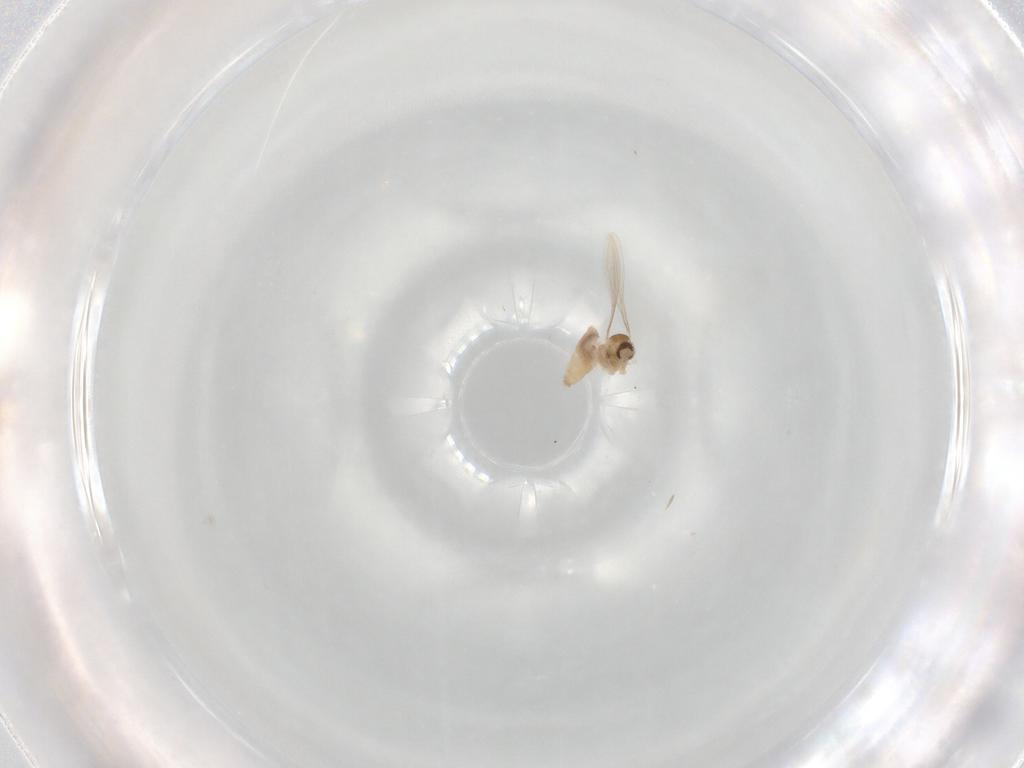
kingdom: Animalia
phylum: Arthropoda
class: Insecta
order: Diptera
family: Cecidomyiidae
